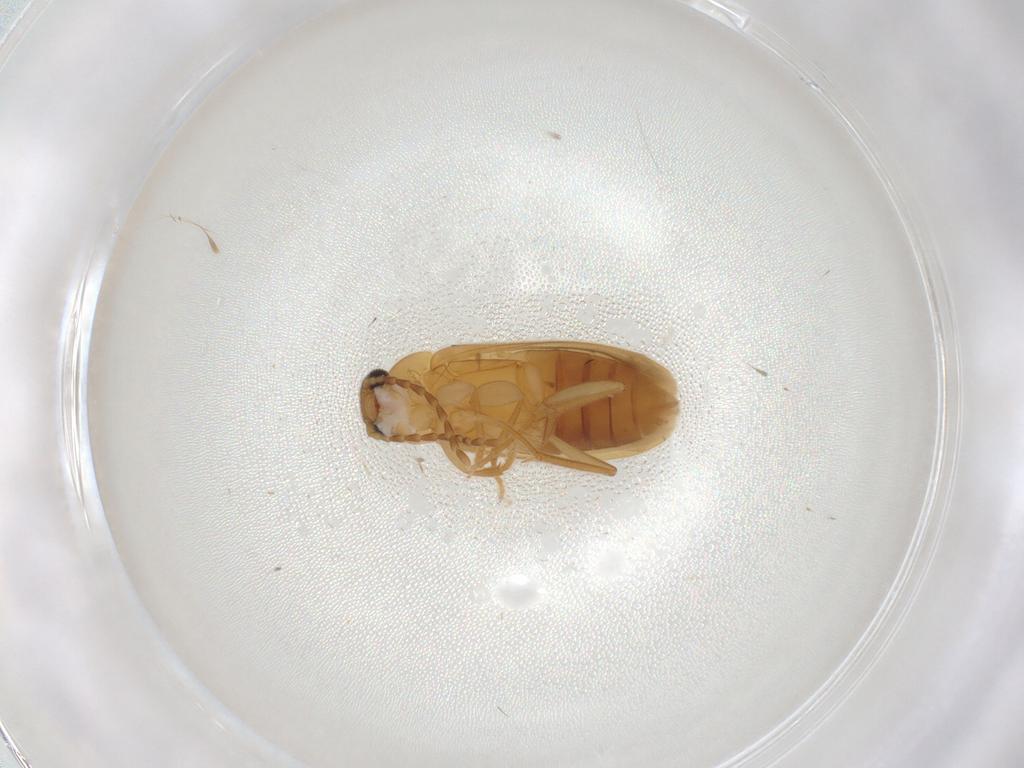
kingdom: Animalia
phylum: Arthropoda
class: Insecta
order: Coleoptera
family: Scraptiidae
